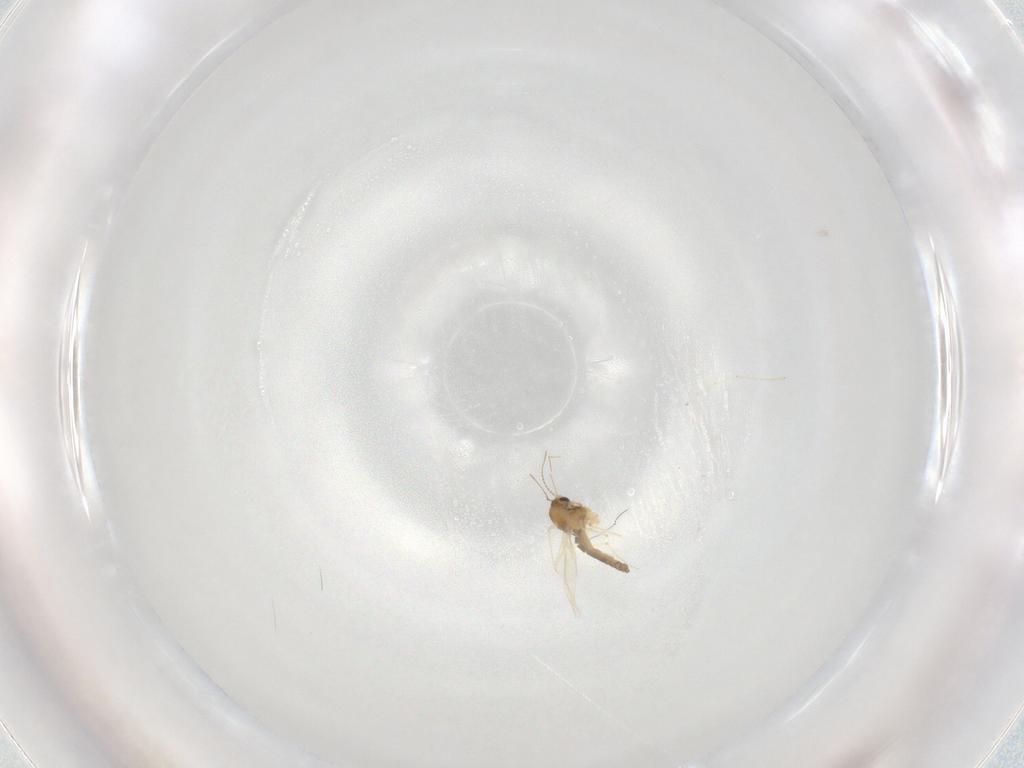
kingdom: Animalia
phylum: Arthropoda
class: Insecta
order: Diptera
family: Chironomidae
